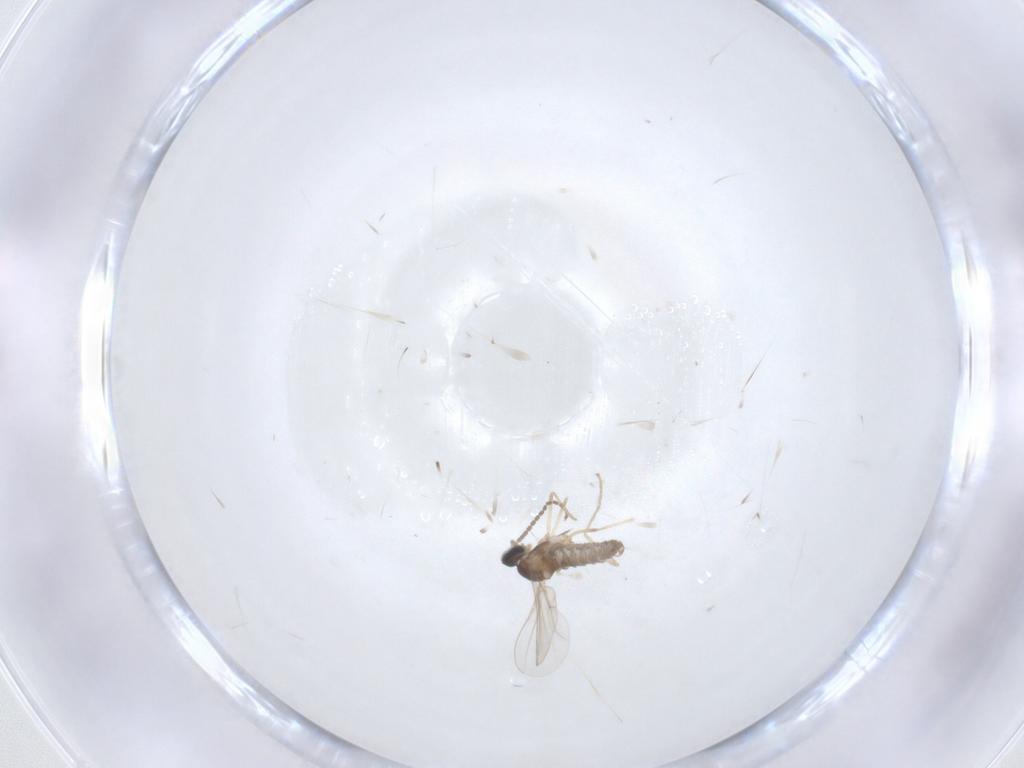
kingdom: Animalia
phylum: Arthropoda
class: Insecta
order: Diptera
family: Cecidomyiidae
